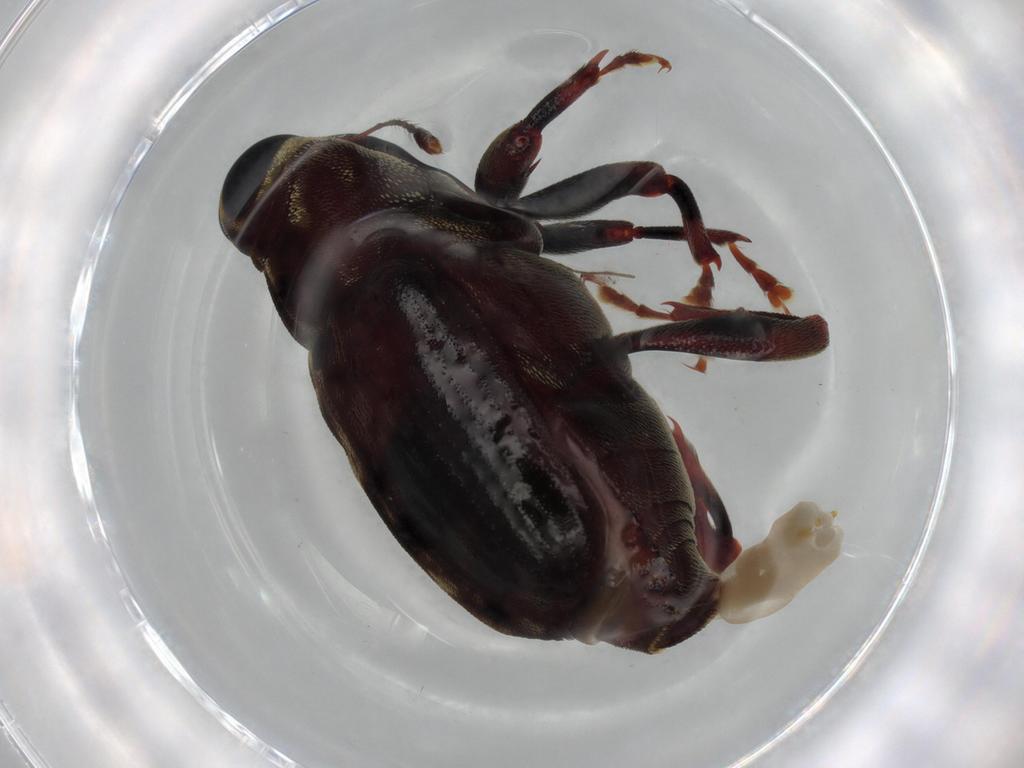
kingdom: Animalia
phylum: Arthropoda
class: Insecta
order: Coleoptera
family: Curculionidae
